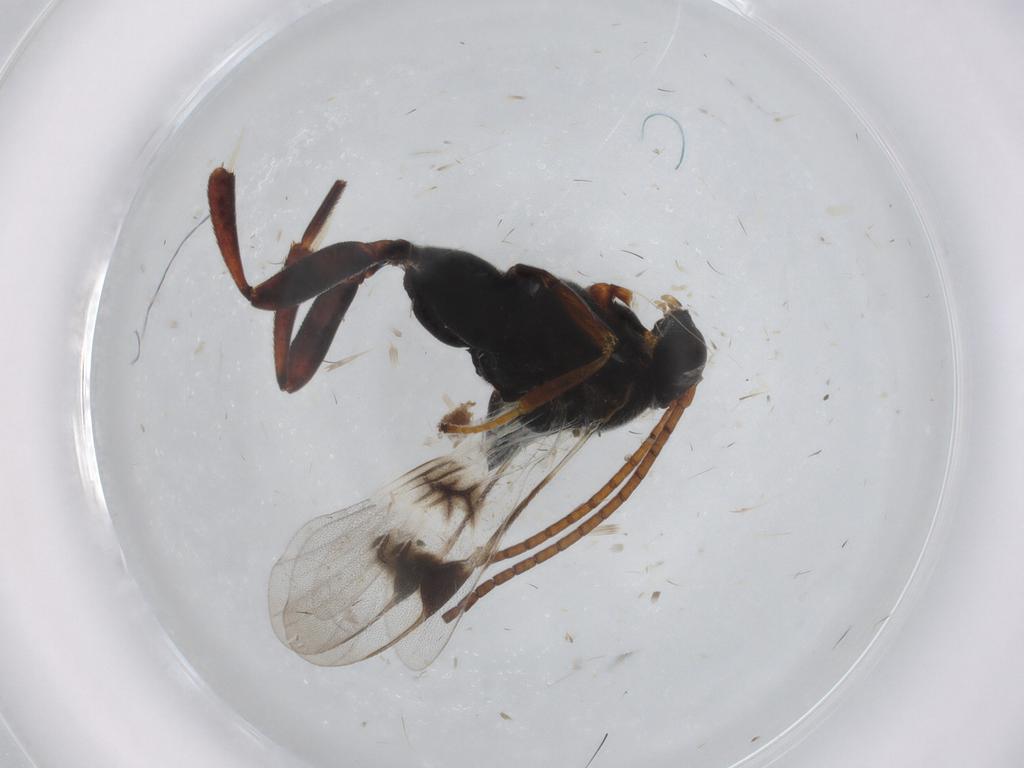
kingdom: Animalia
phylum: Arthropoda
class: Insecta
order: Hymenoptera
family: Braconidae
